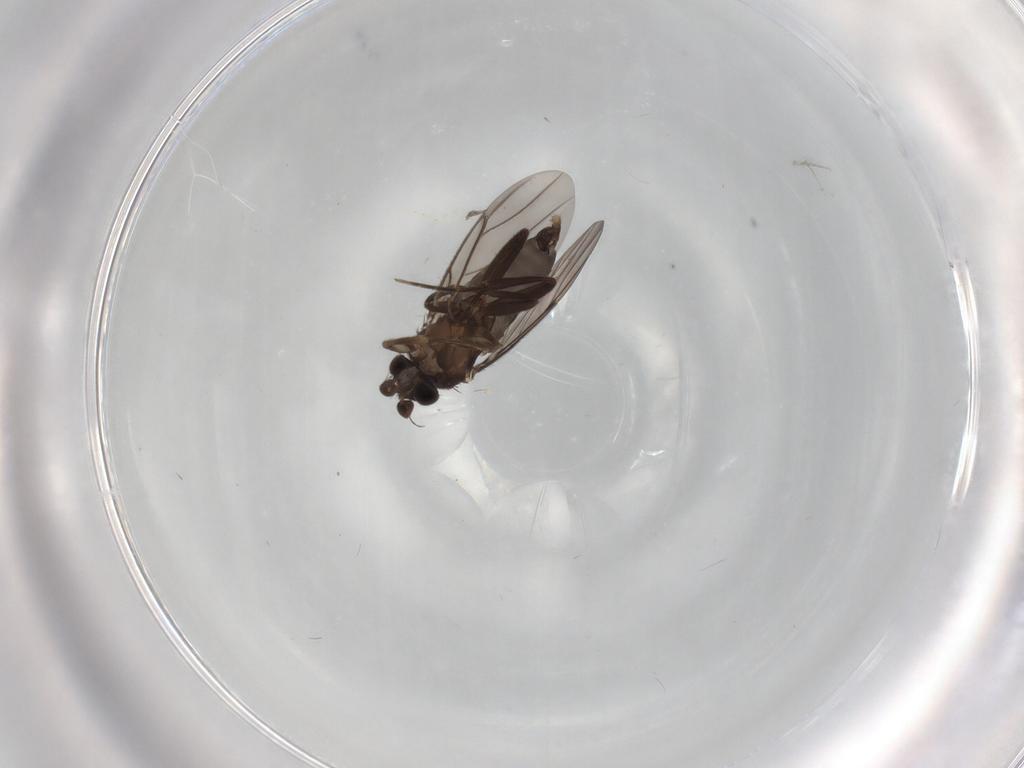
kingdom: Animalia
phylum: Arthropoda
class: Insecta
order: Diptera
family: Cecidomyiidae
